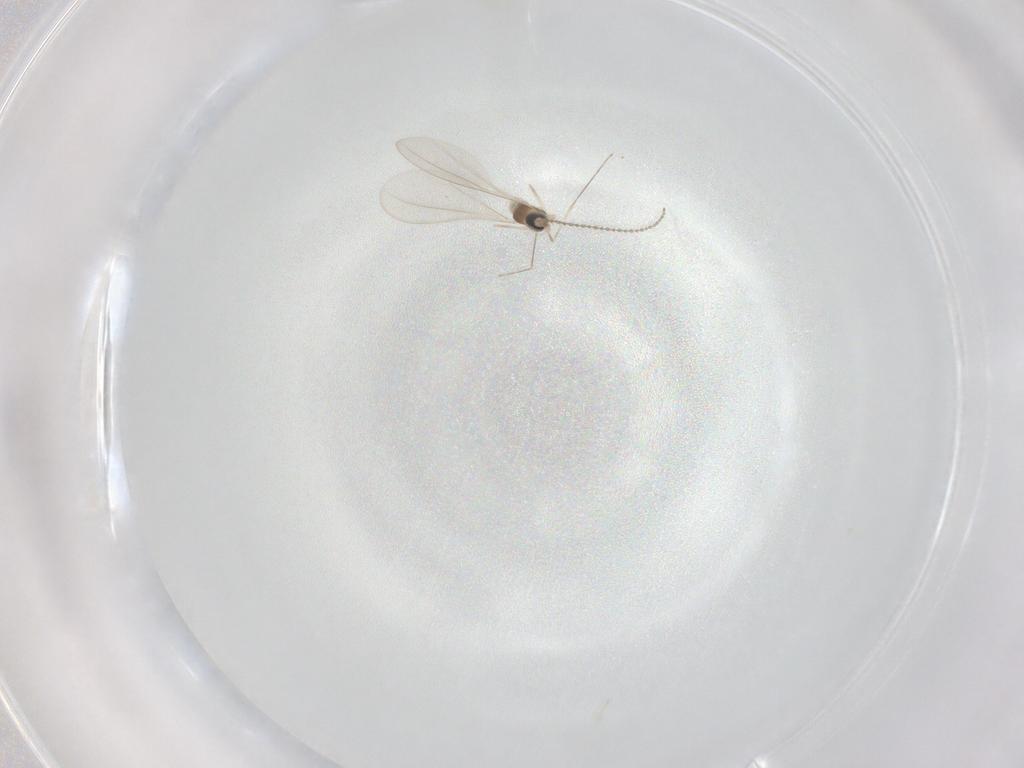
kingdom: Animalia
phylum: Arthropoda
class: Insecta
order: Diptera
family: Cecidomyiidae
